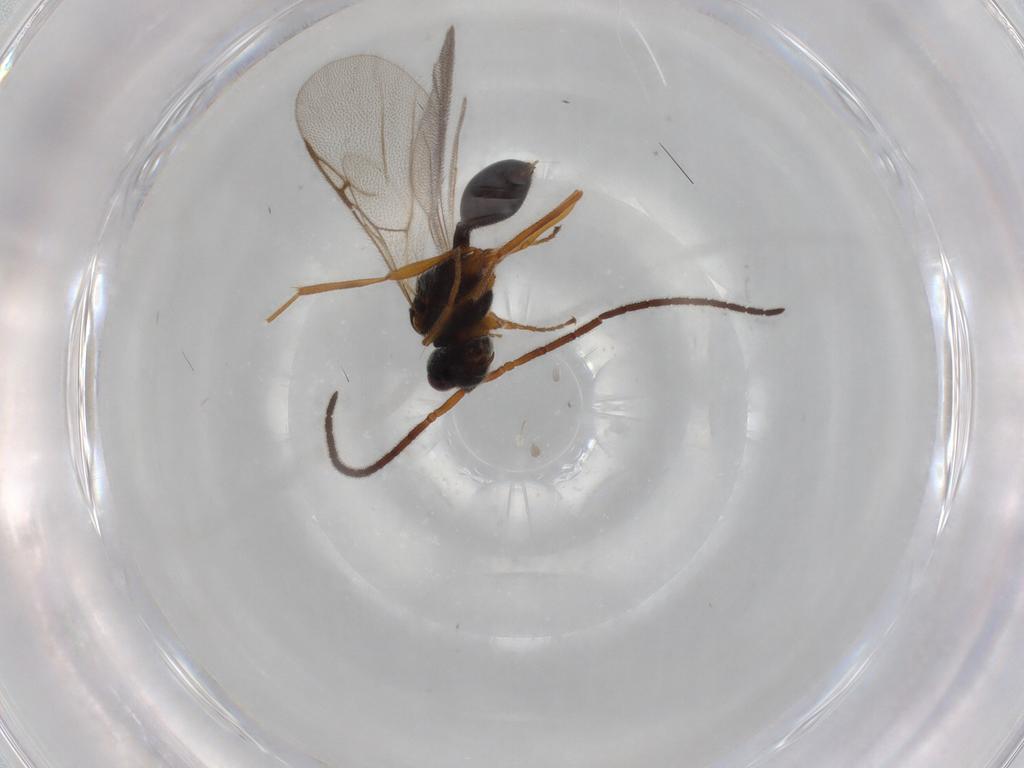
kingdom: Animalia
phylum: Arthropoda
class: Insecta
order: Hymenoptera
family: Diapriidae
